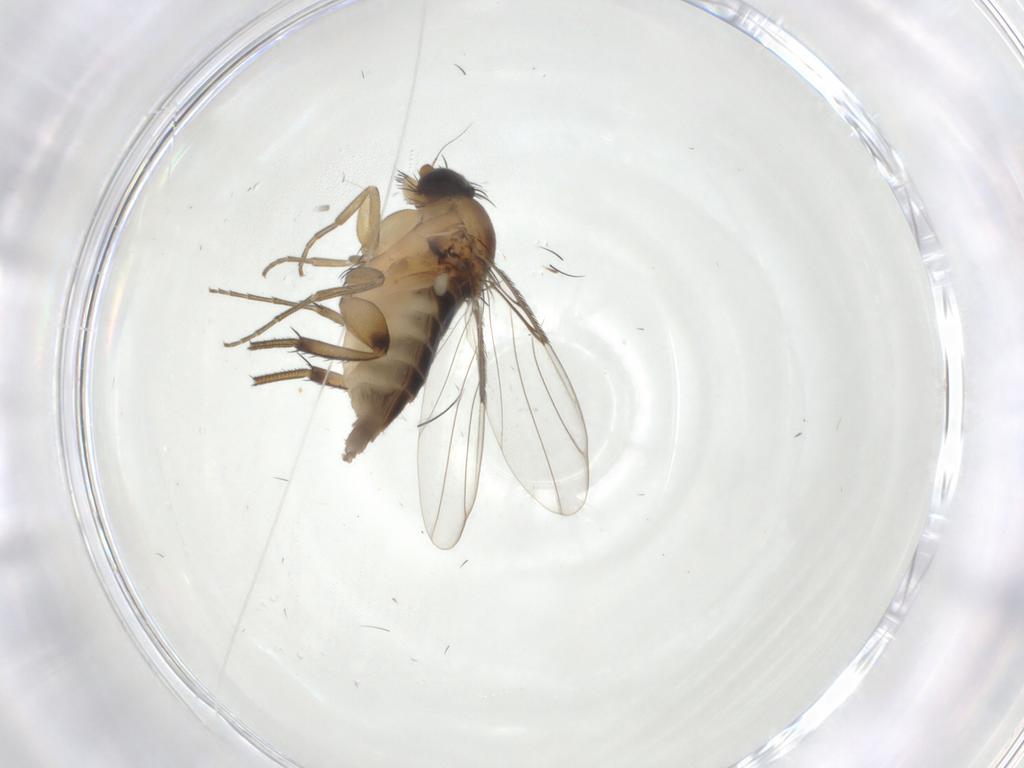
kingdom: Animalia
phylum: Arthropoda
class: Insecta
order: Diptera
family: Phoridae
